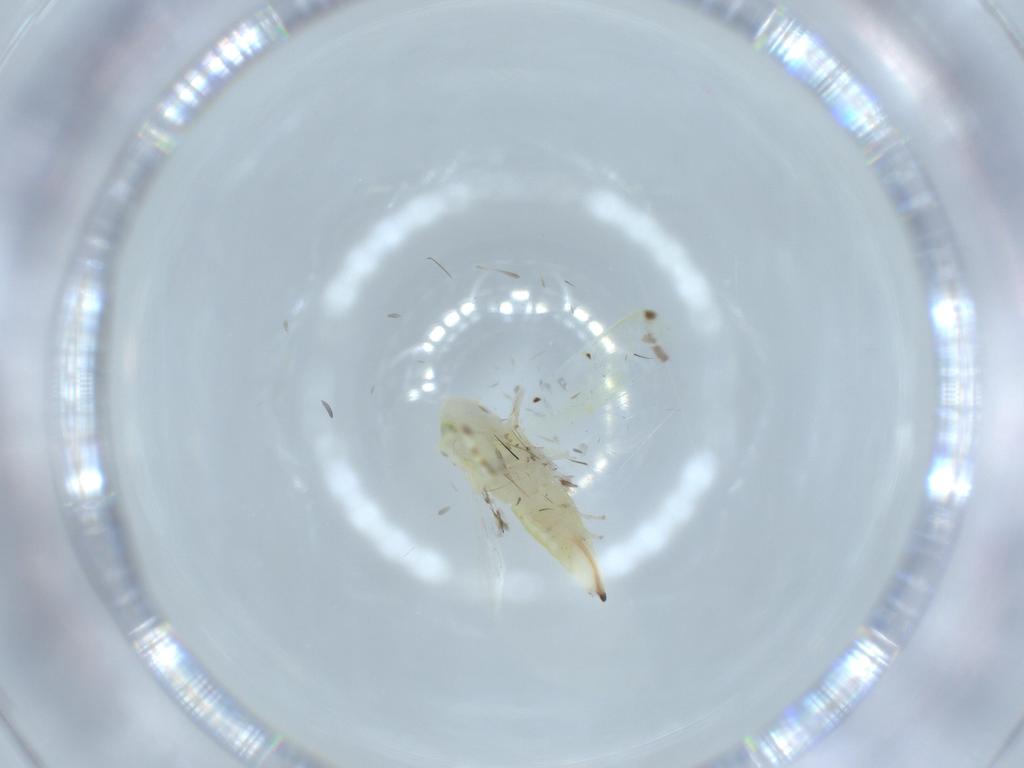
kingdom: Animalia
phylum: Arthropoda
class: Insecta
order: Hemiptera
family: Cicadellidae
